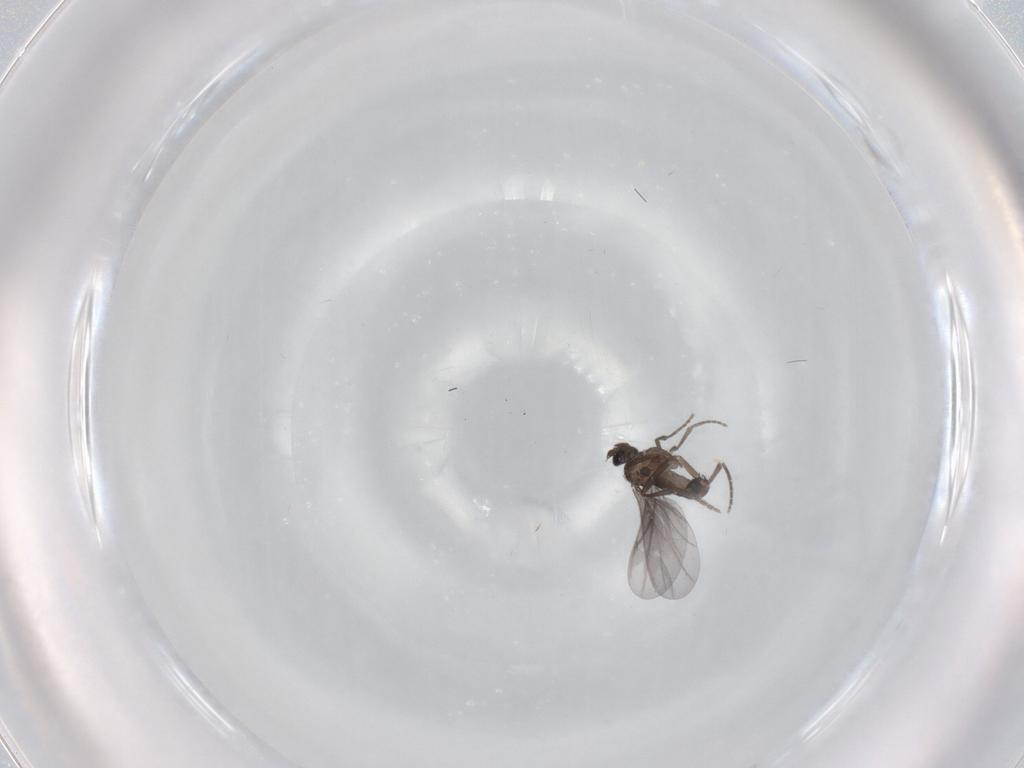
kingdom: Animalia
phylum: Arthropoda
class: Insecta
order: Diptera
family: Phoridae
